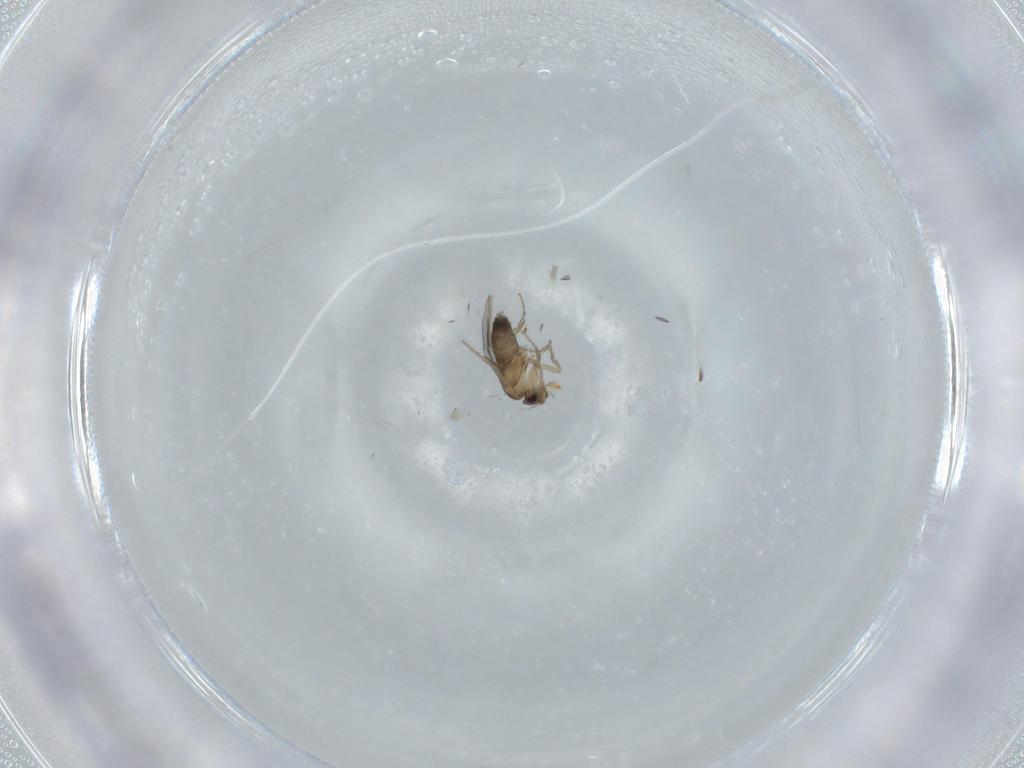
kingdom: Animalia
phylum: Arthropoda
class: Insecta
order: Diptera
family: Phoridae
